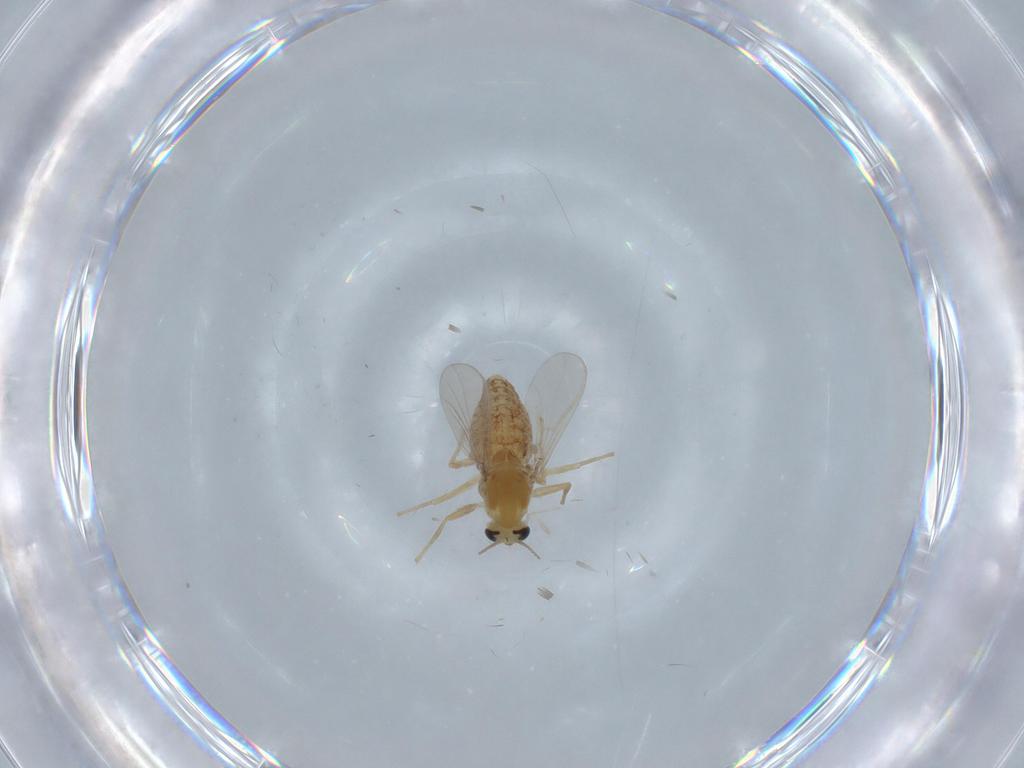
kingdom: Animalia
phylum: Arthropoda
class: Insecta
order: Diptera
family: Chironomidae
